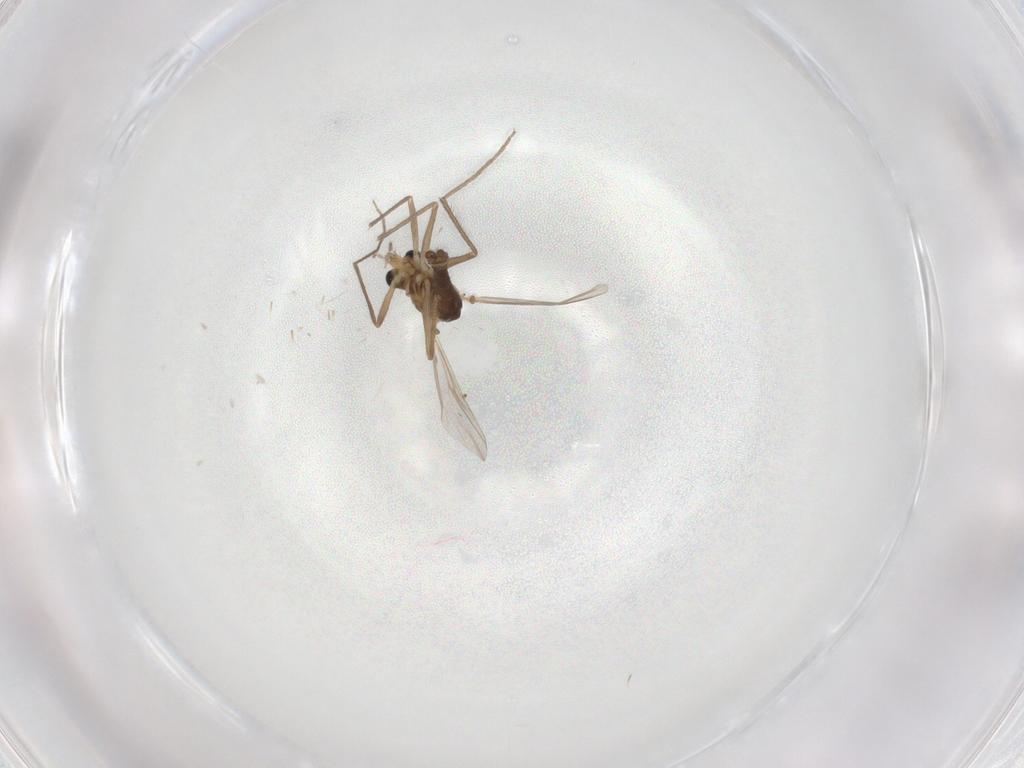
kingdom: Animalia
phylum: Arthropoda
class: Insecta
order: Diptera
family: Chironomidae
